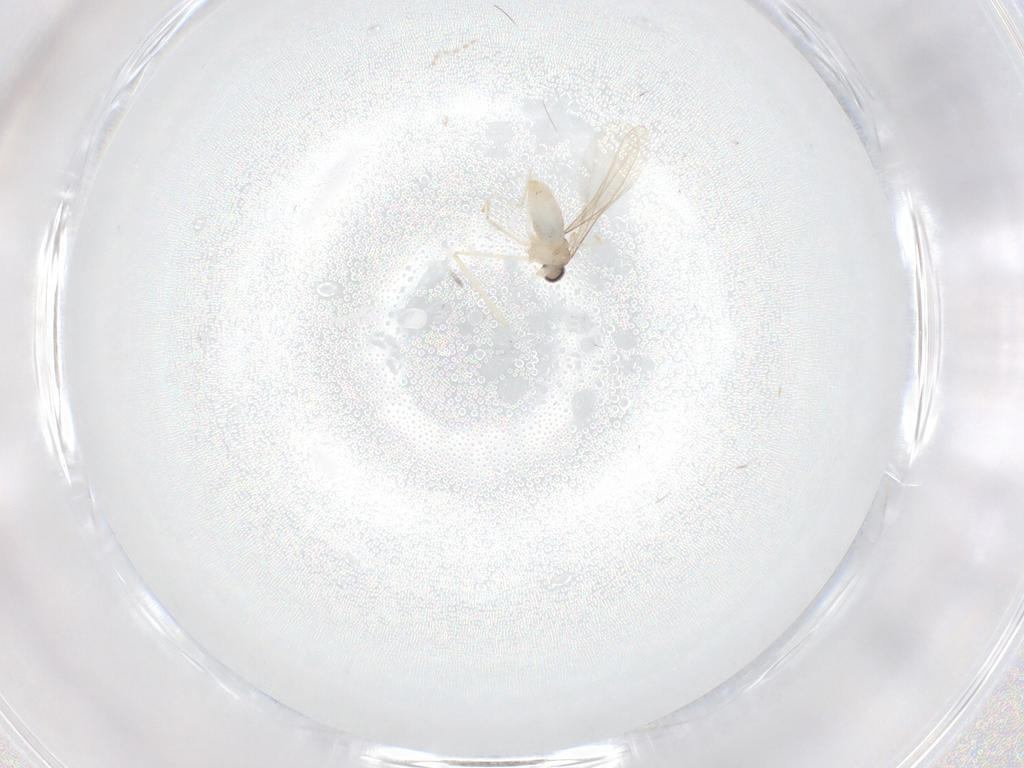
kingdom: Animalia
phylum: Arthropoda
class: Insecta
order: Diptera
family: Cecidomyiidae
